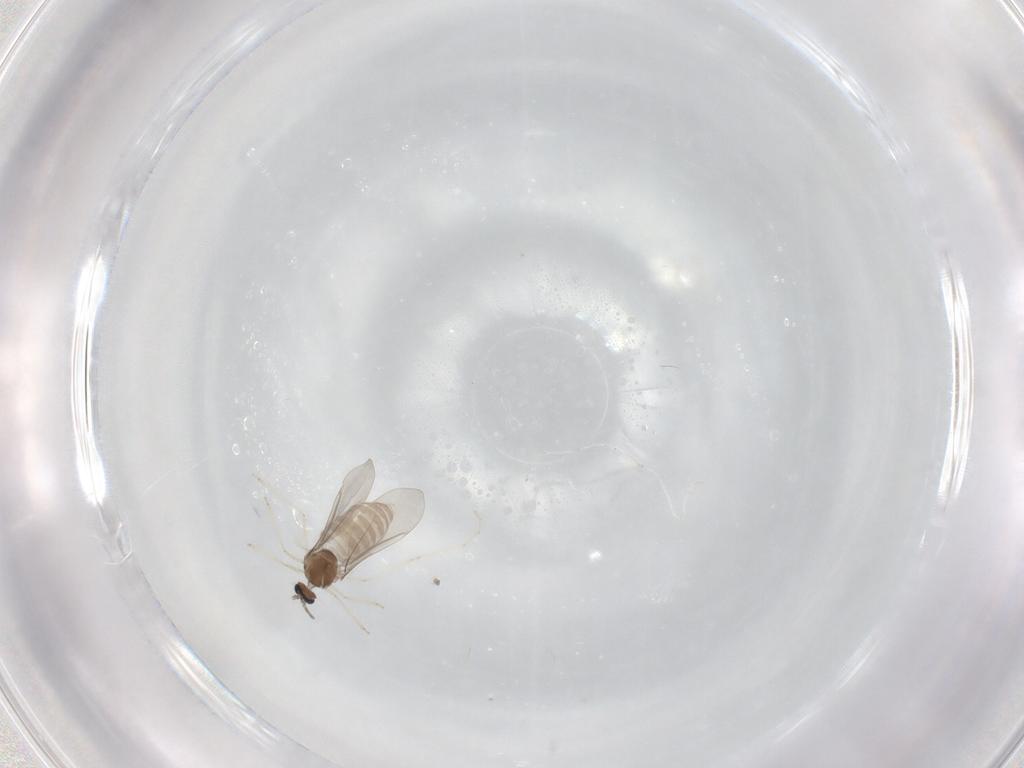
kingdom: Animalia
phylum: Arthropoda
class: Insecta
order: Diptera
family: Cecidomyiidae
